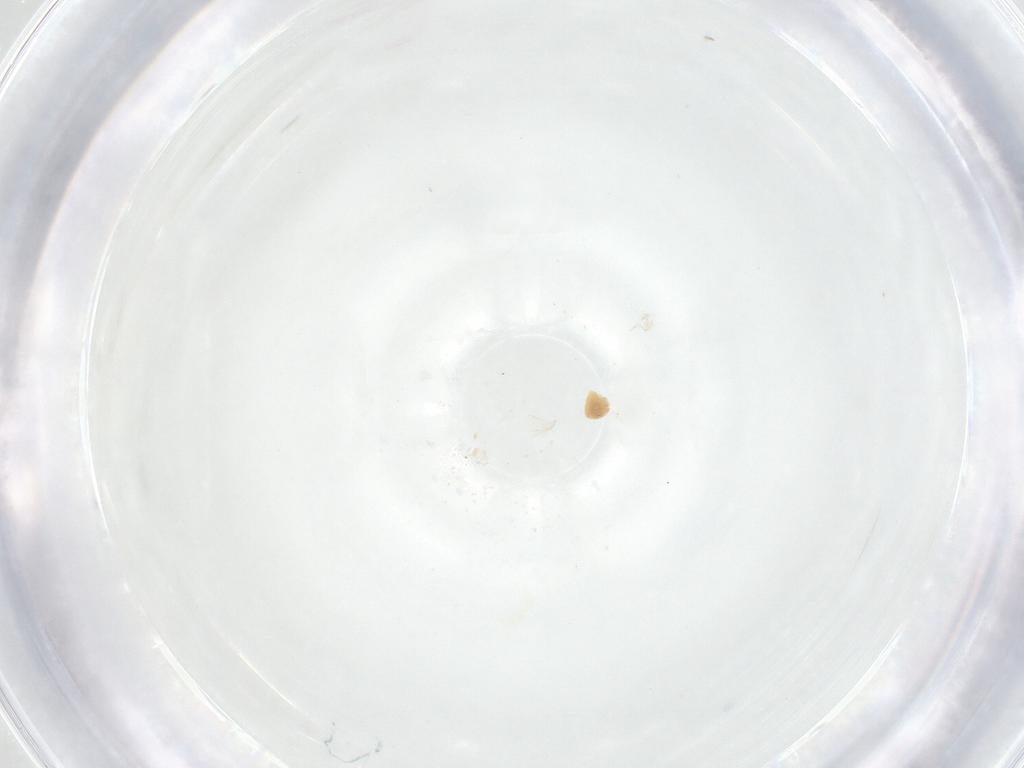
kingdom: Animalia
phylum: Arthropoda
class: Insecta
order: Diptera
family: Fergusoninidae
